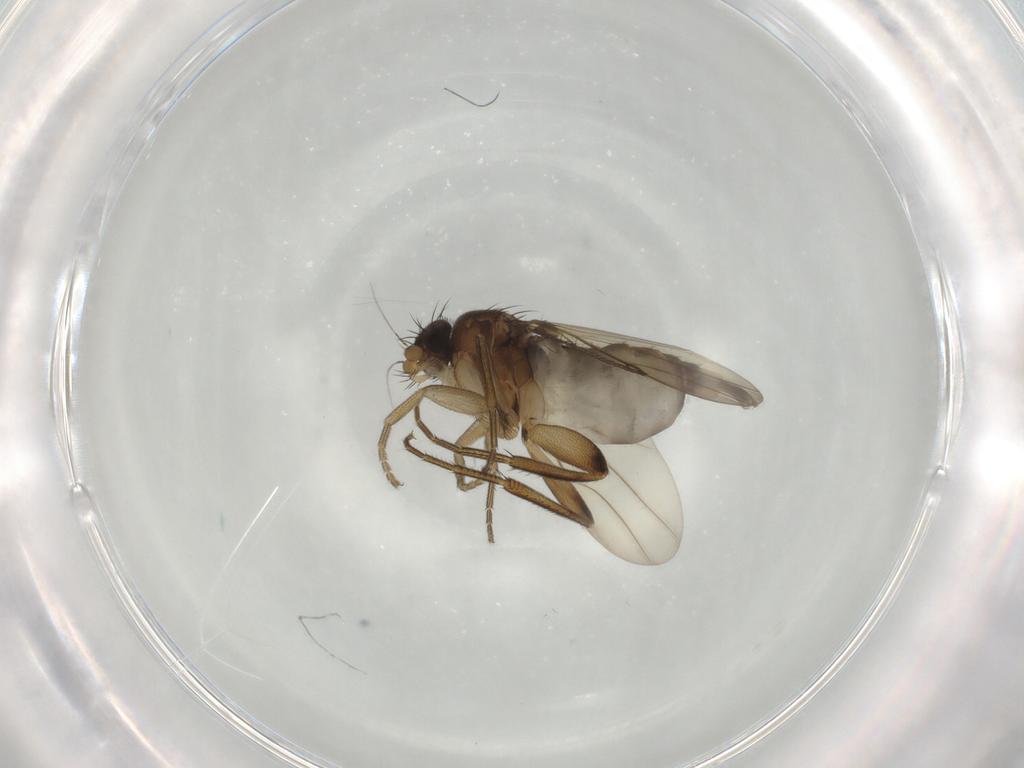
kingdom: Animalia
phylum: Arthropoda
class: Insecta
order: Diptera
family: Phoridae
